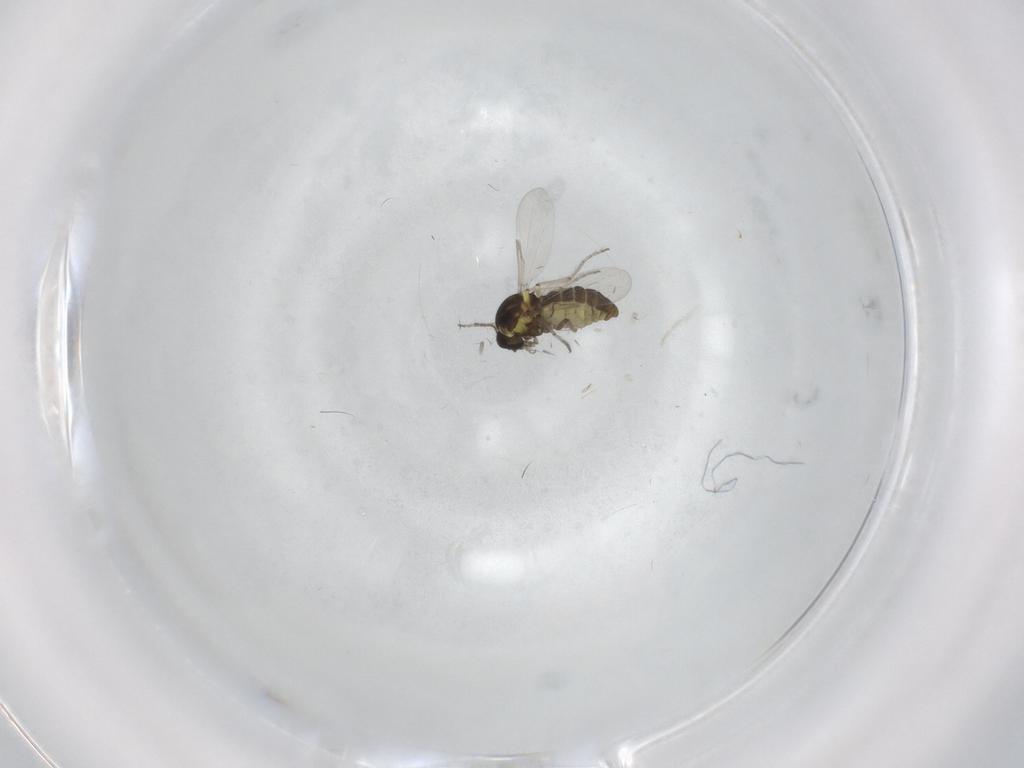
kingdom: Animalia
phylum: Arthropoda
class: Insecta
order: Diptera
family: Ceratopogonidae
